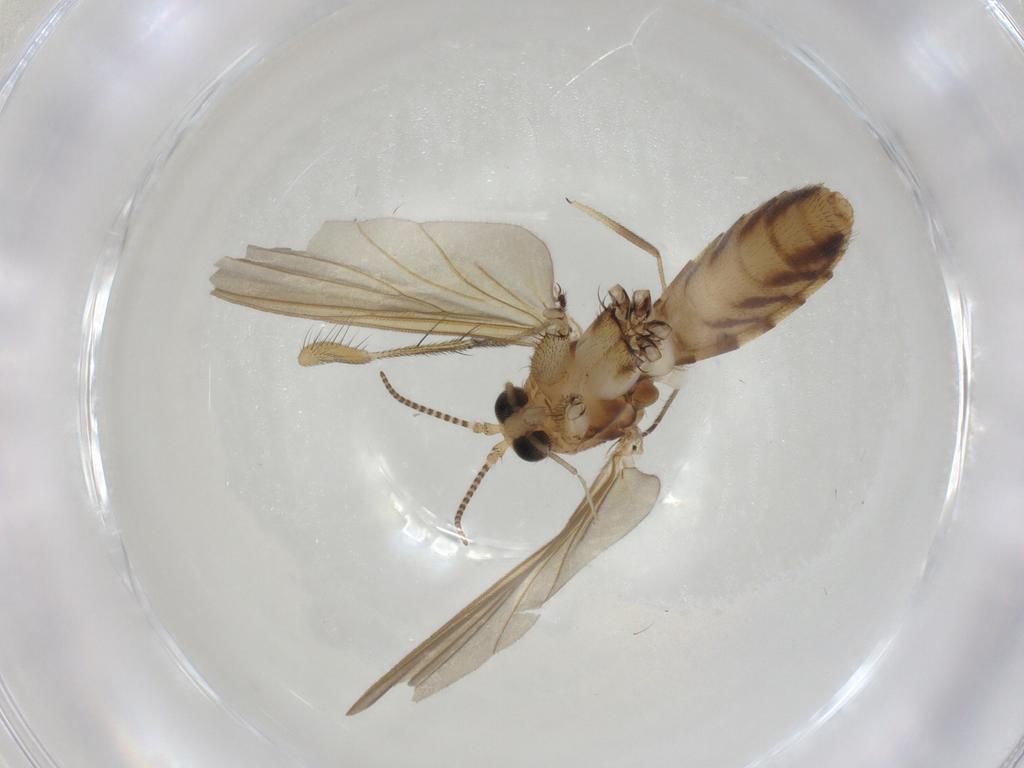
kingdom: Animalia
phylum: Arthropoda
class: Insecta
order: Diptera
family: Mycetophilidae
